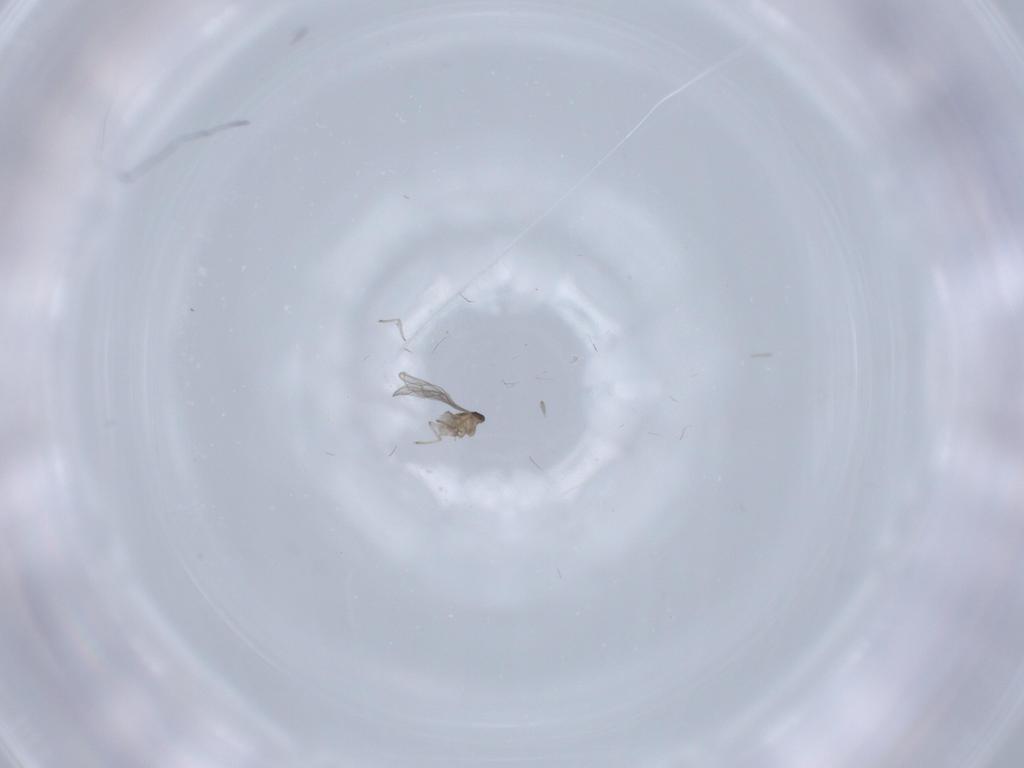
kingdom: Animalia
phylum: Arthropoda
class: Insecta
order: Diptera
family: Cecidomyiidae
